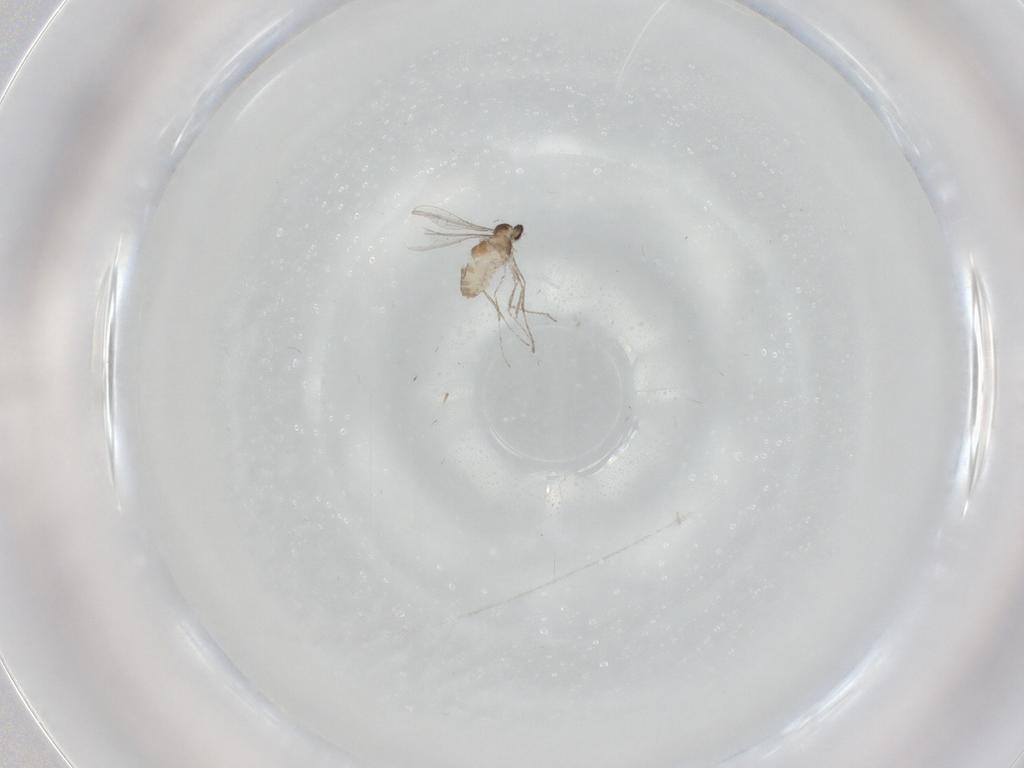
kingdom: Animalia
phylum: Arthropoda
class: Insecta
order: Diptera
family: Cecidomyiidae
